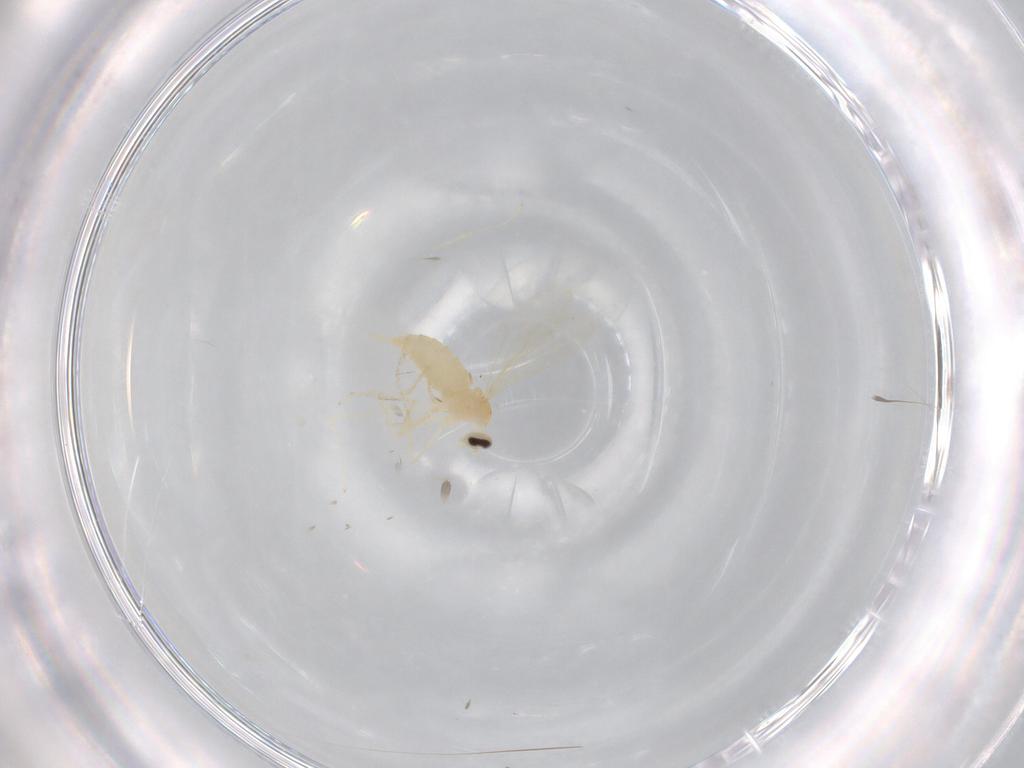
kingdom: Animalia
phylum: Arthropoda
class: Insecta
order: Diptera
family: Cecidomyiidae
